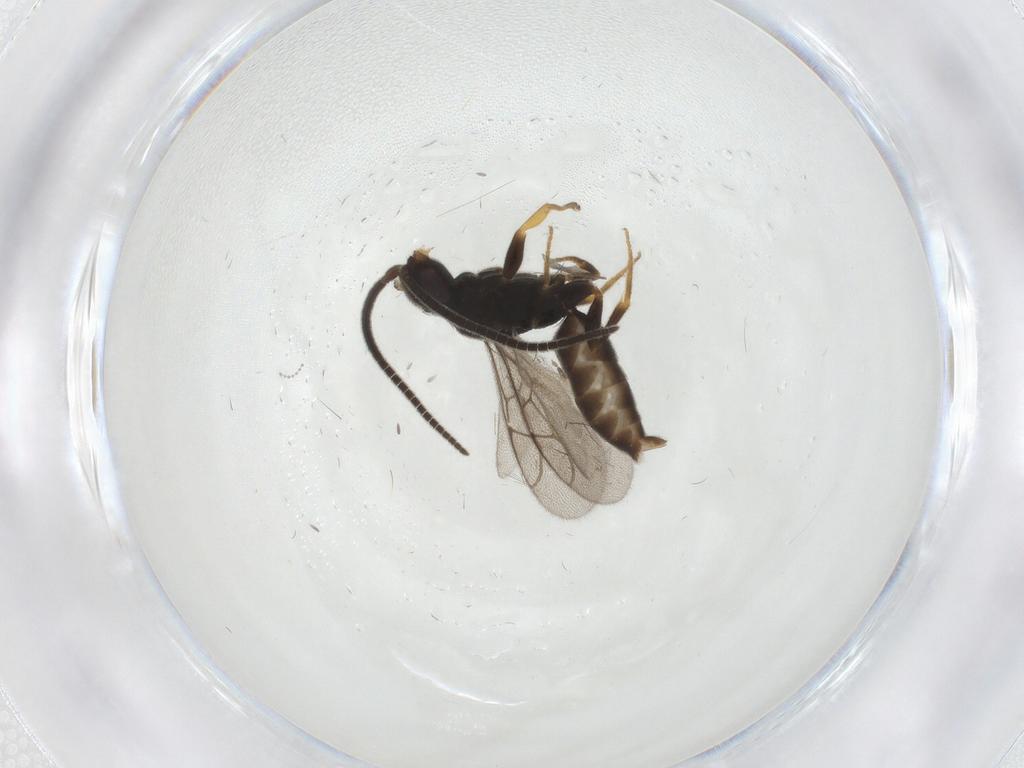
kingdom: Animalia
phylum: Arthropoda
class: Insecta
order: Hymenoptera
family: Sclerogibbidae
